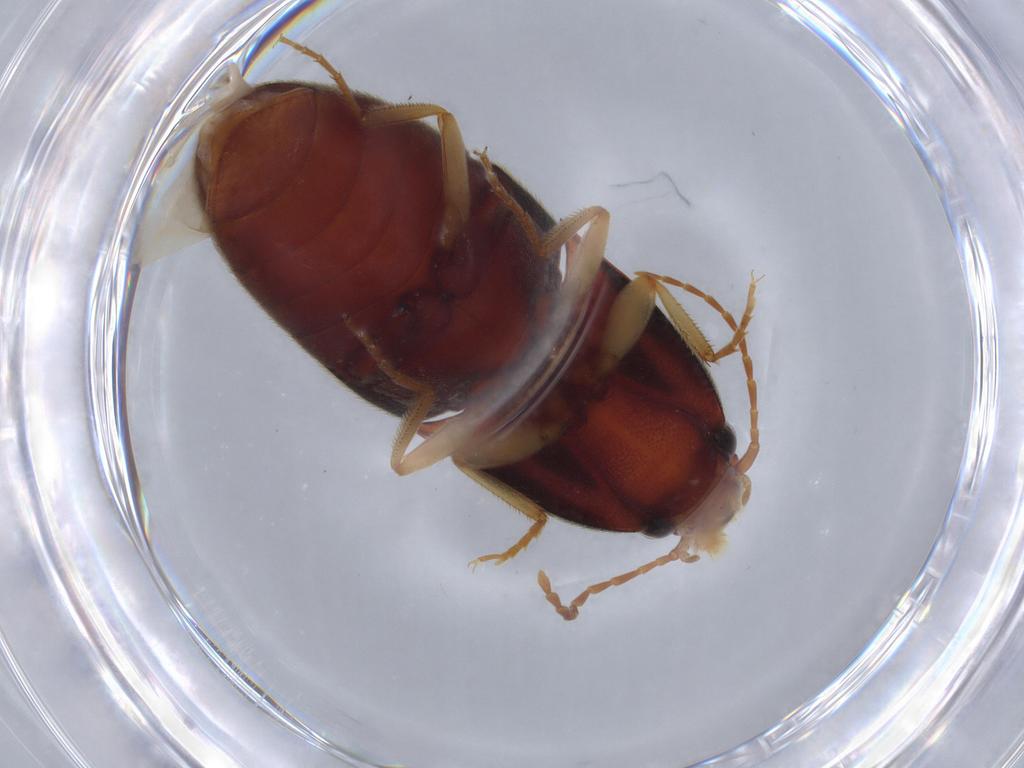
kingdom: Animalia
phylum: Arthropoda
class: Insecta
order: Coleoptera
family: Elateridae
